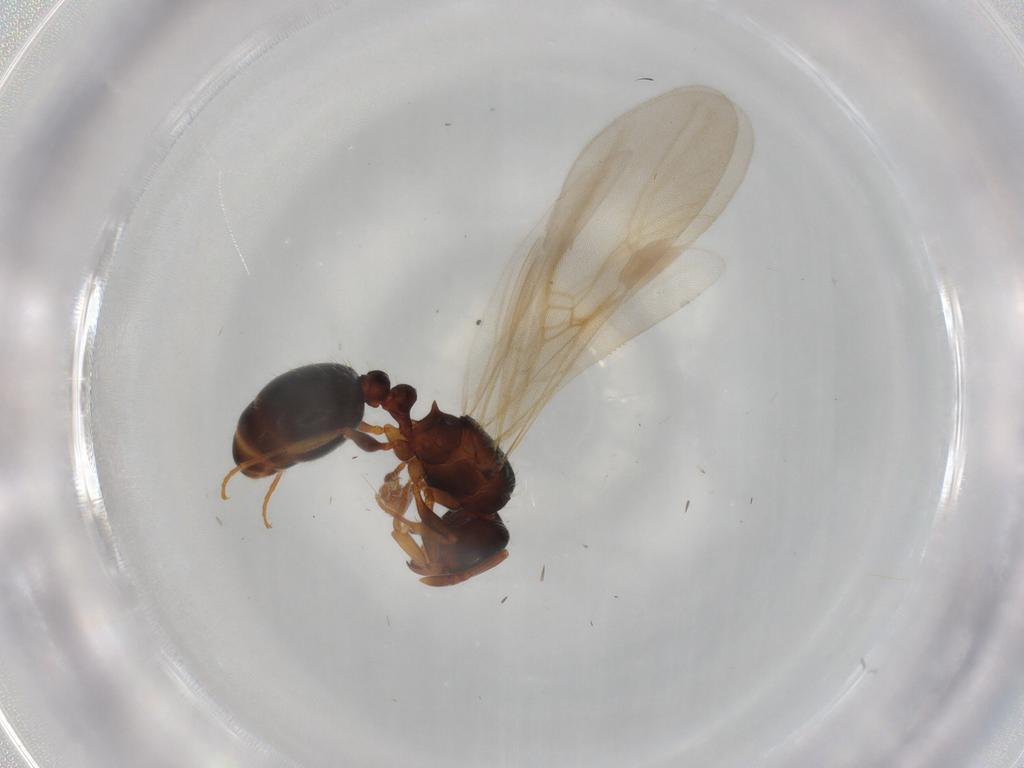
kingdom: Animalia
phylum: Arthropoda
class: Insecta
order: Hymenoptera
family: Formicidae
